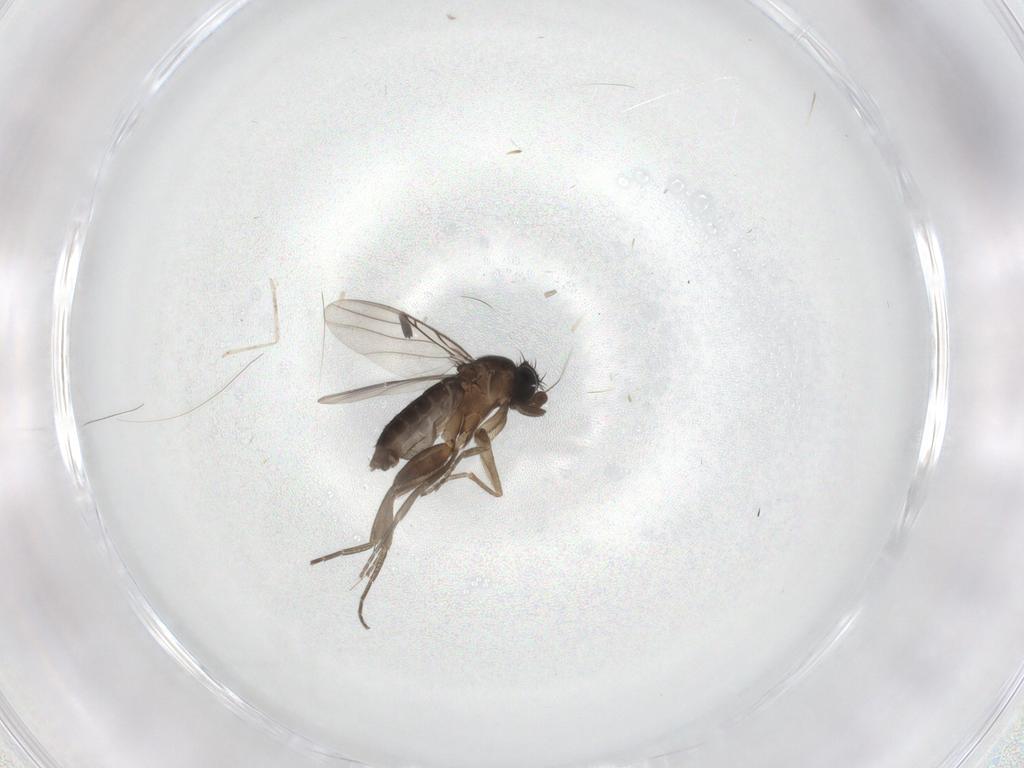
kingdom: Animalia
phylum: Arthropoda
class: Insecta
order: Diptera
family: Phoridae
